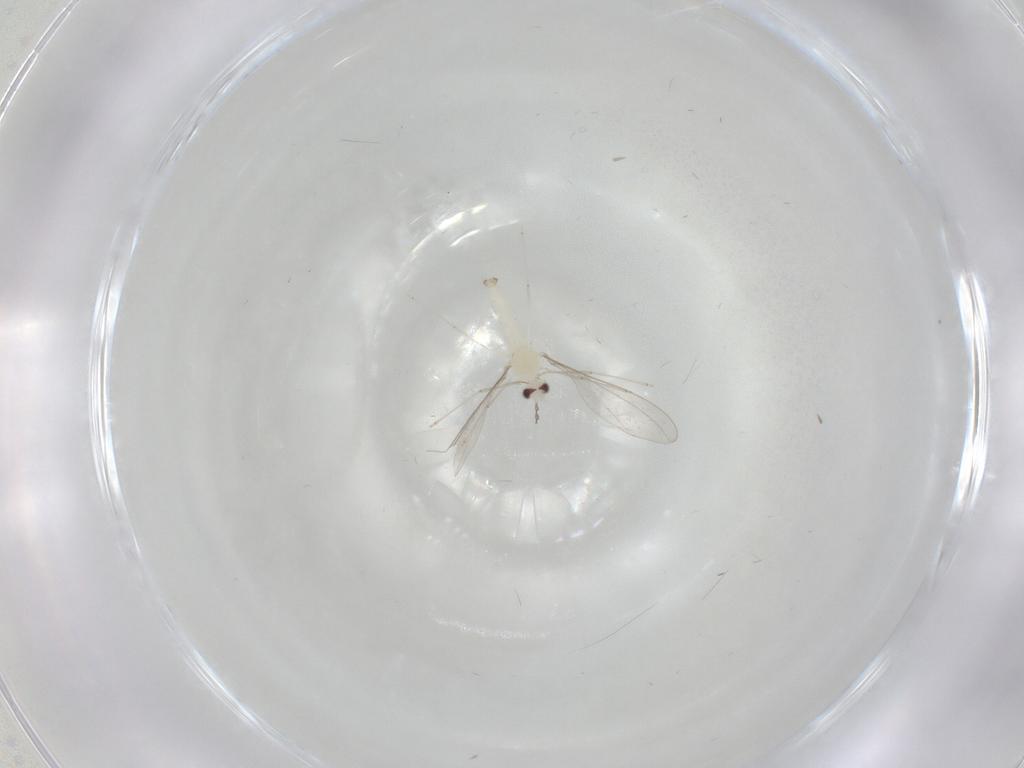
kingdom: Animalia
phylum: Arthropoda
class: Insecta
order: Diptera
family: Cecidomyiidae
